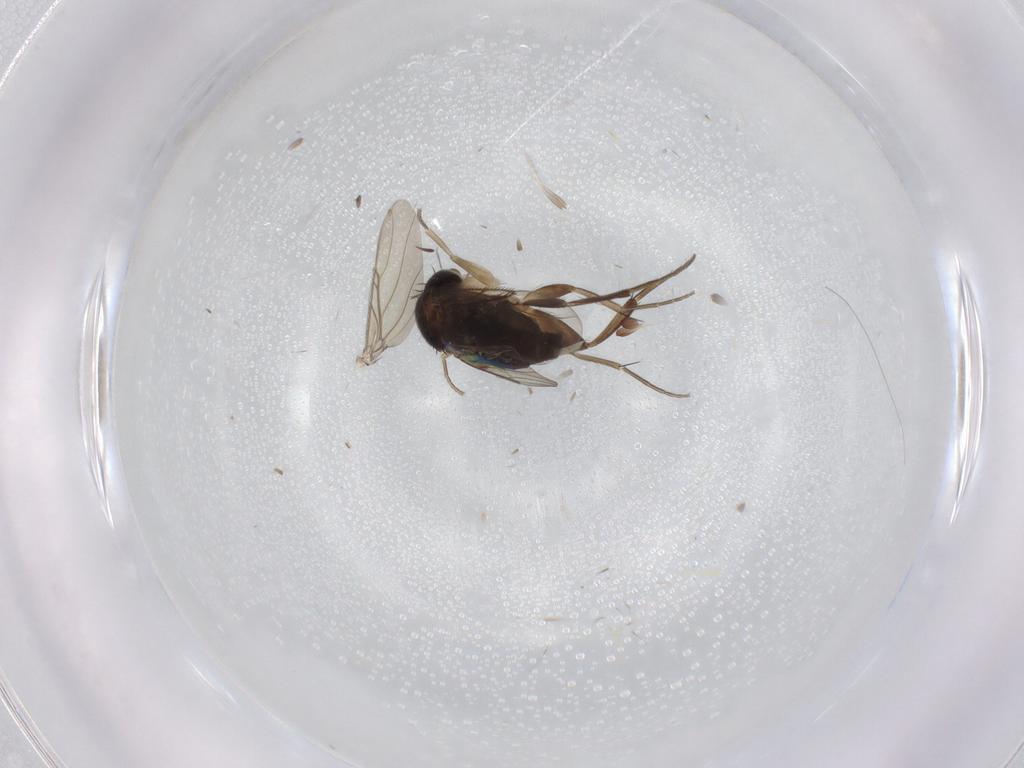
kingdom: Animalia
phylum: Arthropoda
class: Insecta
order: Diptera
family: Phoridae
